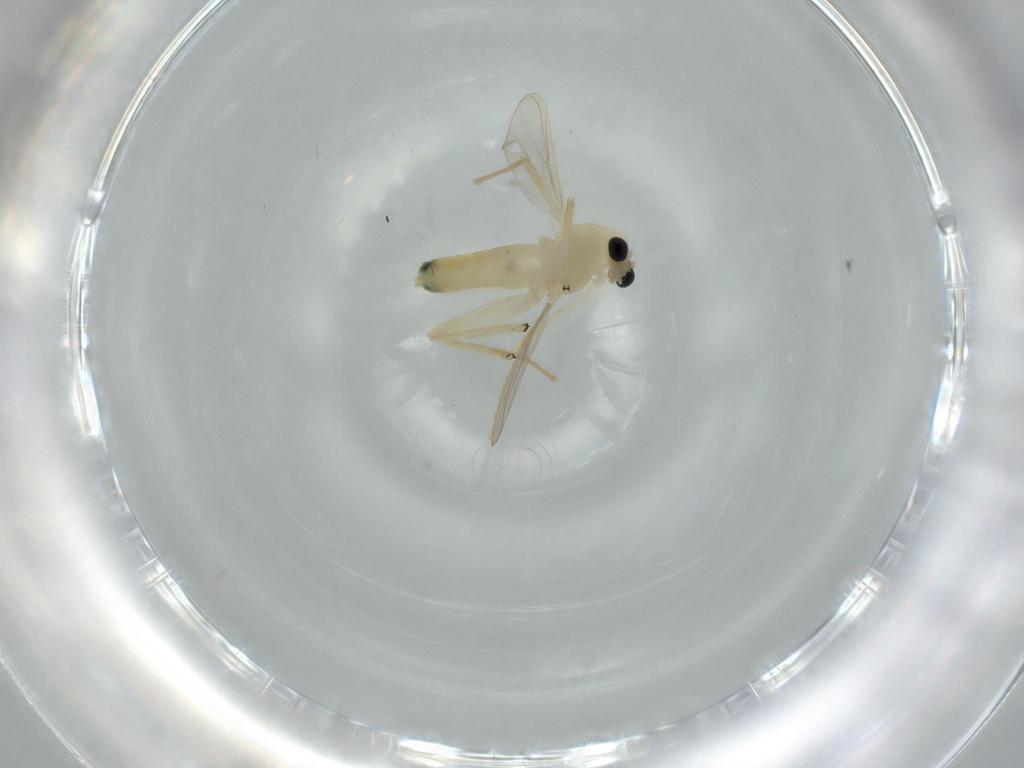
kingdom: Animalia
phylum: Arthropoda
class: Insecta
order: Diptera
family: Chironomidae
